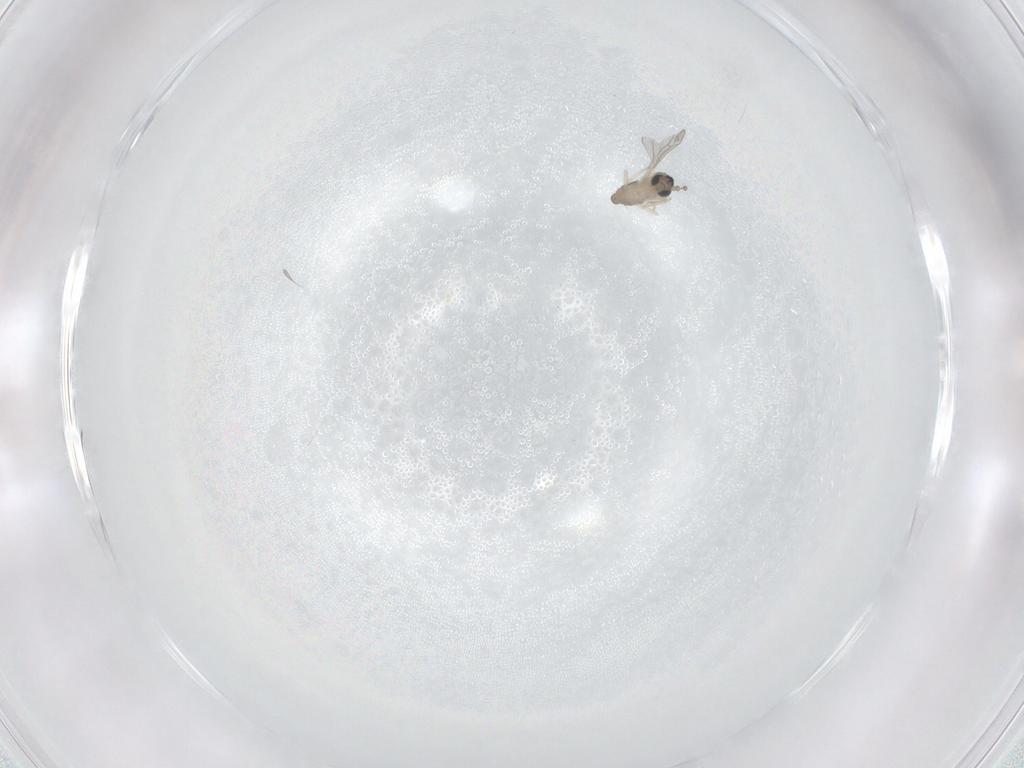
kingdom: Animalia
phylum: Arthropoda
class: Insecta
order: Diptera
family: Cecidomyiidae
